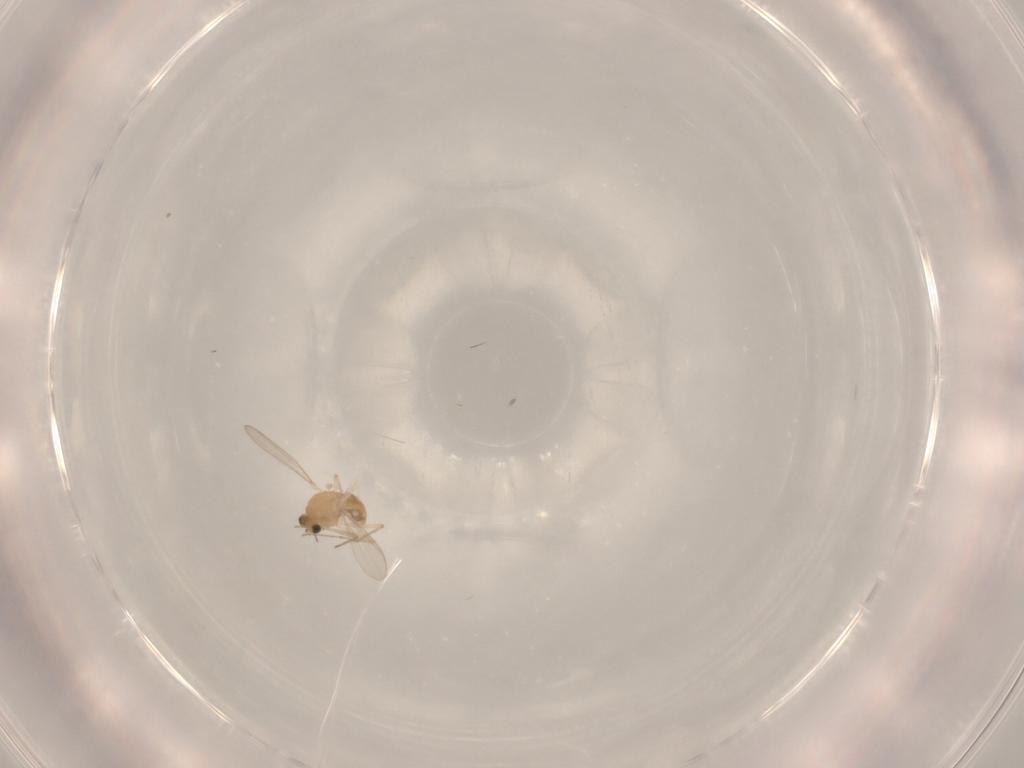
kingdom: Animalia
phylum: Arthropoda
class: Insecta
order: Diptera
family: Chironomidae
